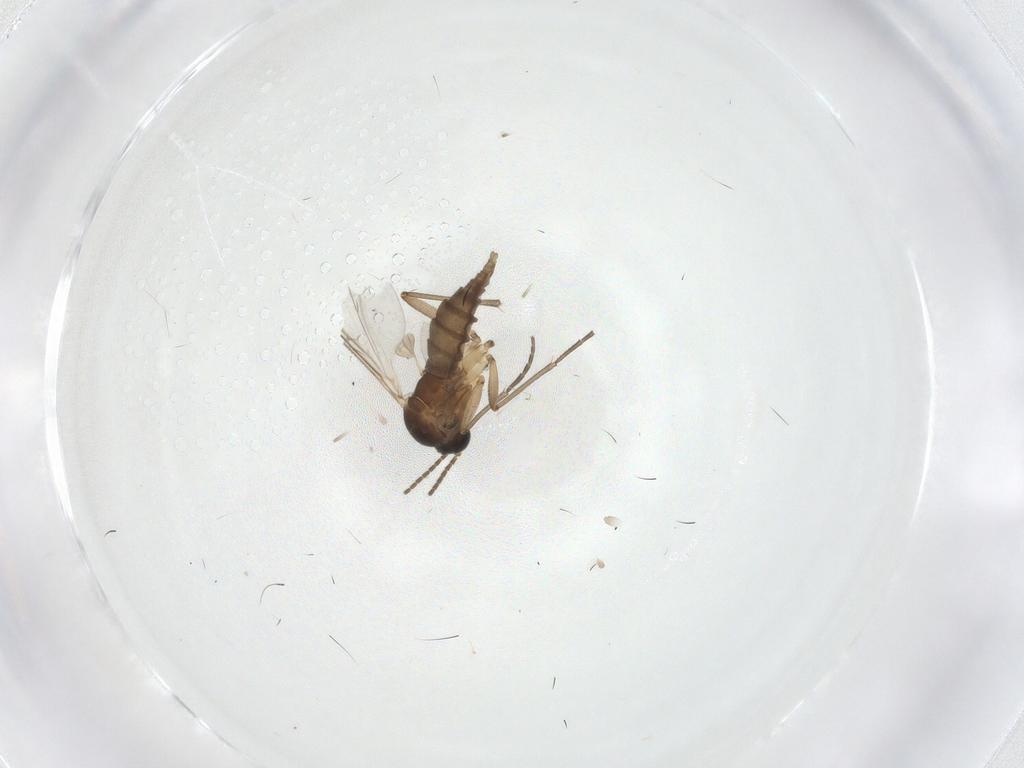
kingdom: Animalia
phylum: Arthropoda
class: Insecta
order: Diptera
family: Sciaridae
